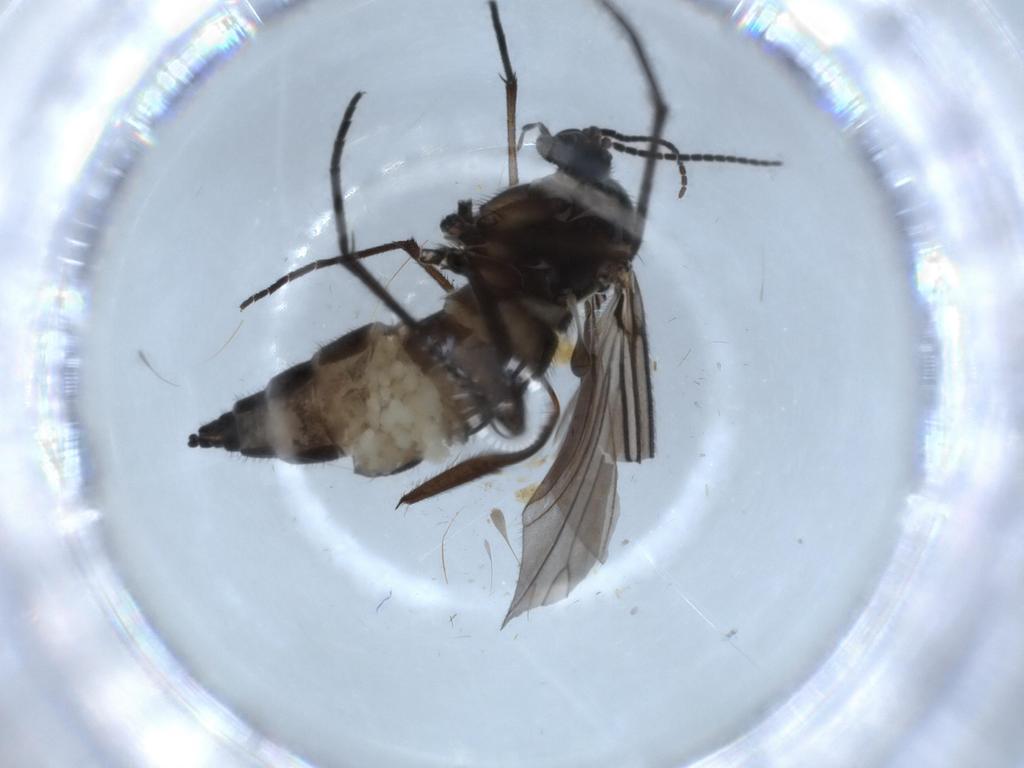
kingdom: Animalia
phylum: Arthropoda
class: Insecta
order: Diptera
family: Sciaridae
